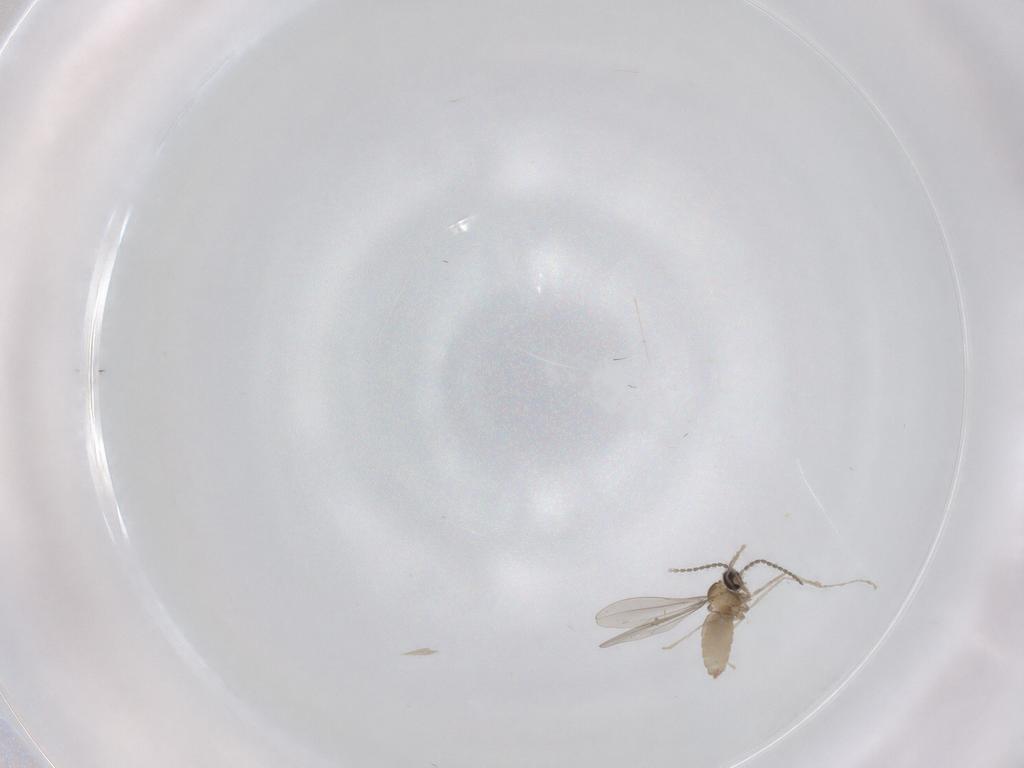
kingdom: Animalia
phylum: Arthropoda
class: Insecta
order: Diptera
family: Cecidomyiidae
